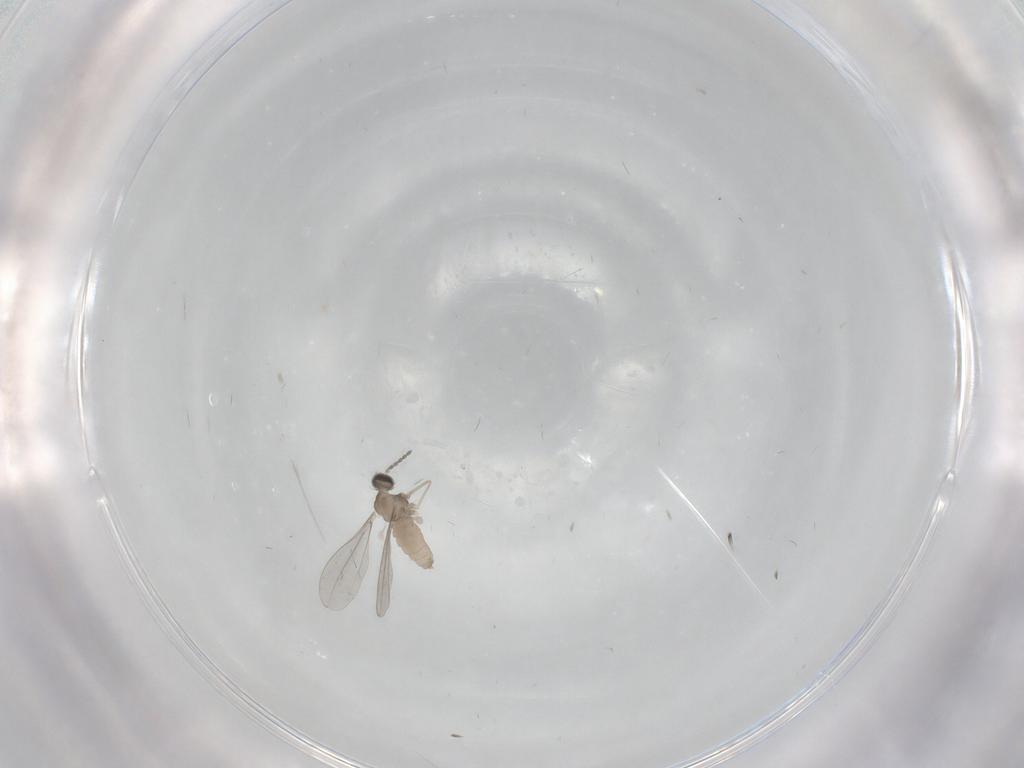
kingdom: Animalia
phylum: Arthropoda
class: Insecta
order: Diptera
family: Cecidomyiidae
